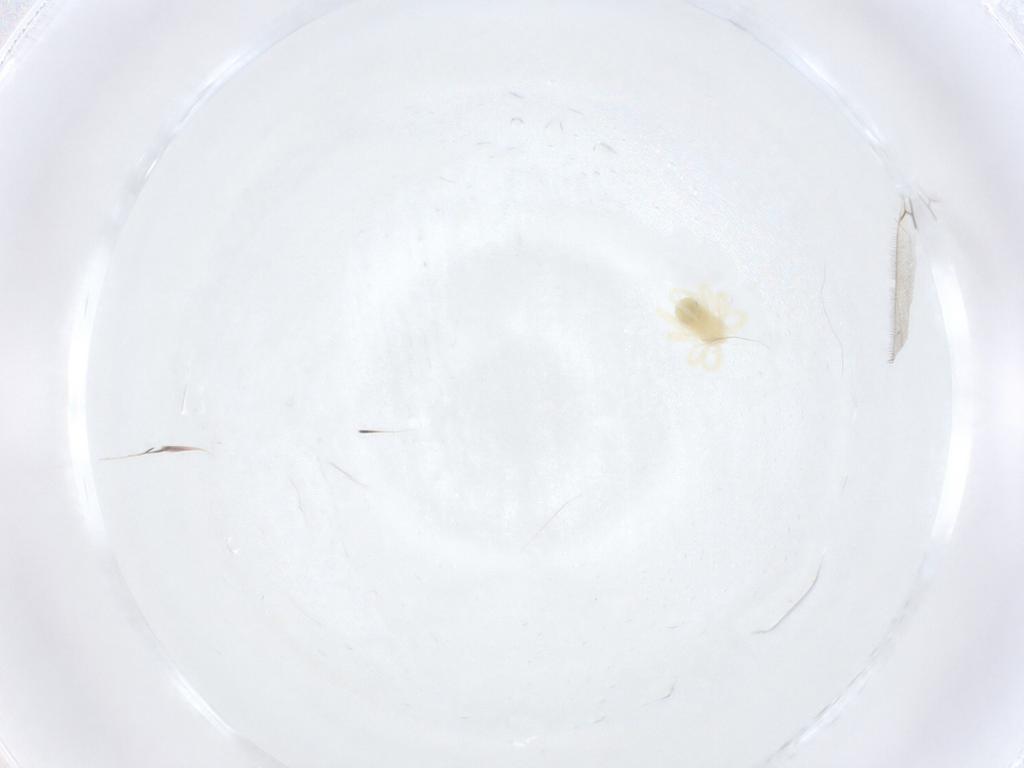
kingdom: Animalia
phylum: Arthropoda
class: Arachnida
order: Trombidiformes
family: Anystidae
